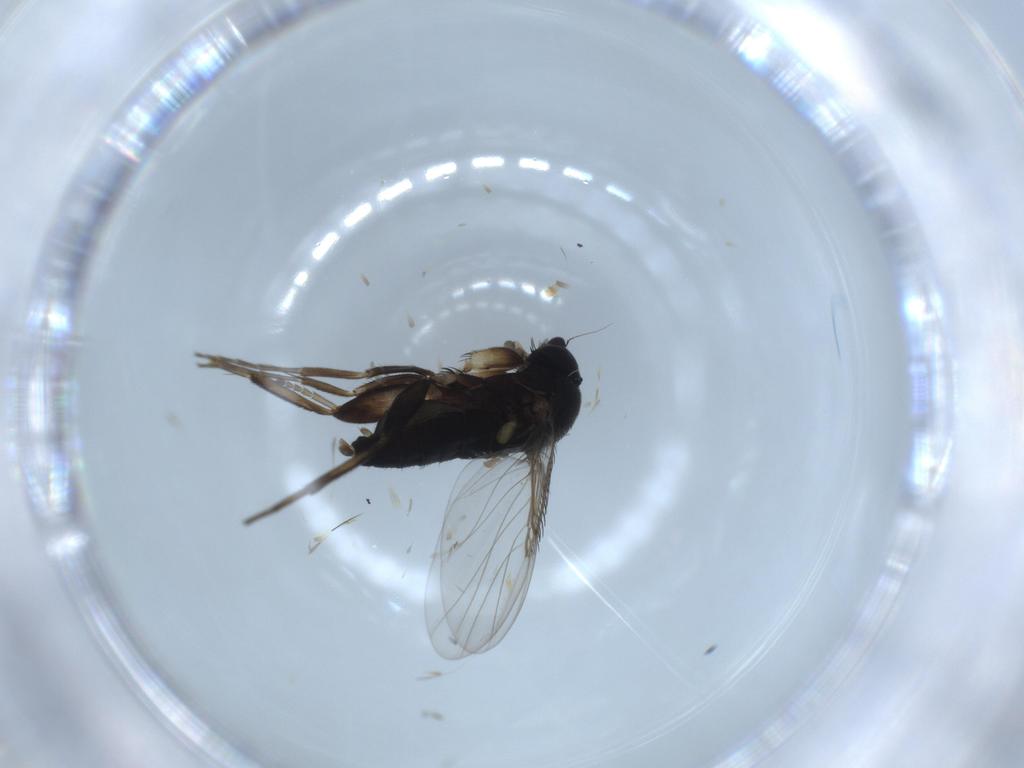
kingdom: Animalia
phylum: Arthropoda
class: Insecta
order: Diptera
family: Phoridae
